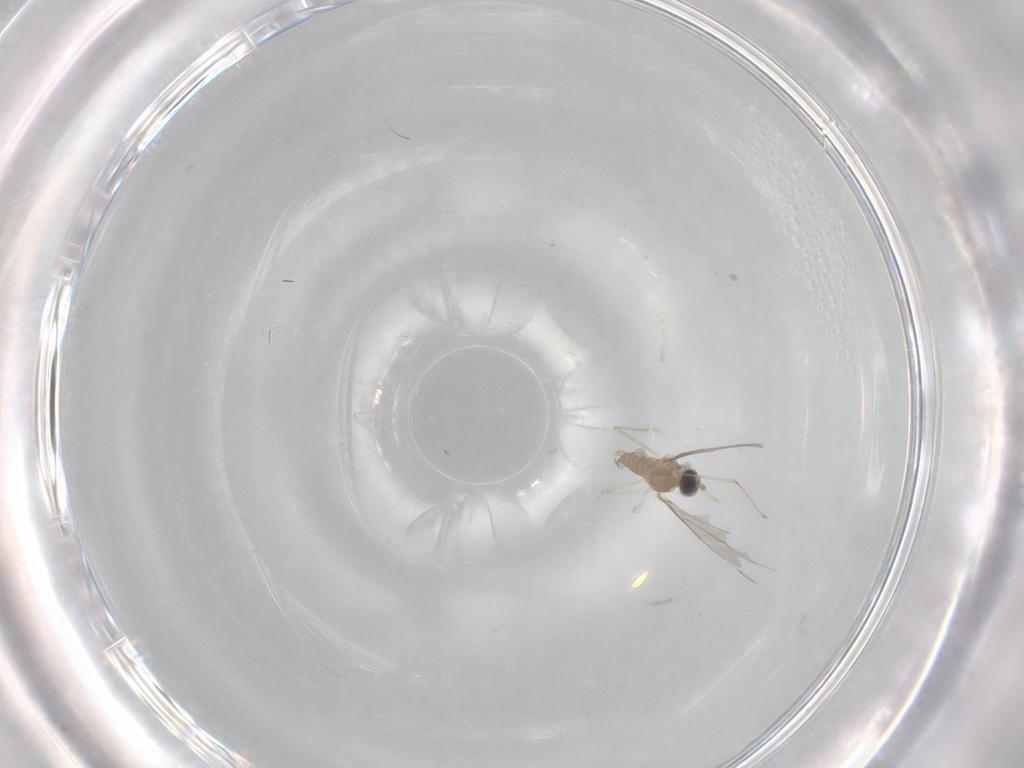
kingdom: Animalia
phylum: Arthropoda
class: Insecta
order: Diptera
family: Cecidomyiidae
